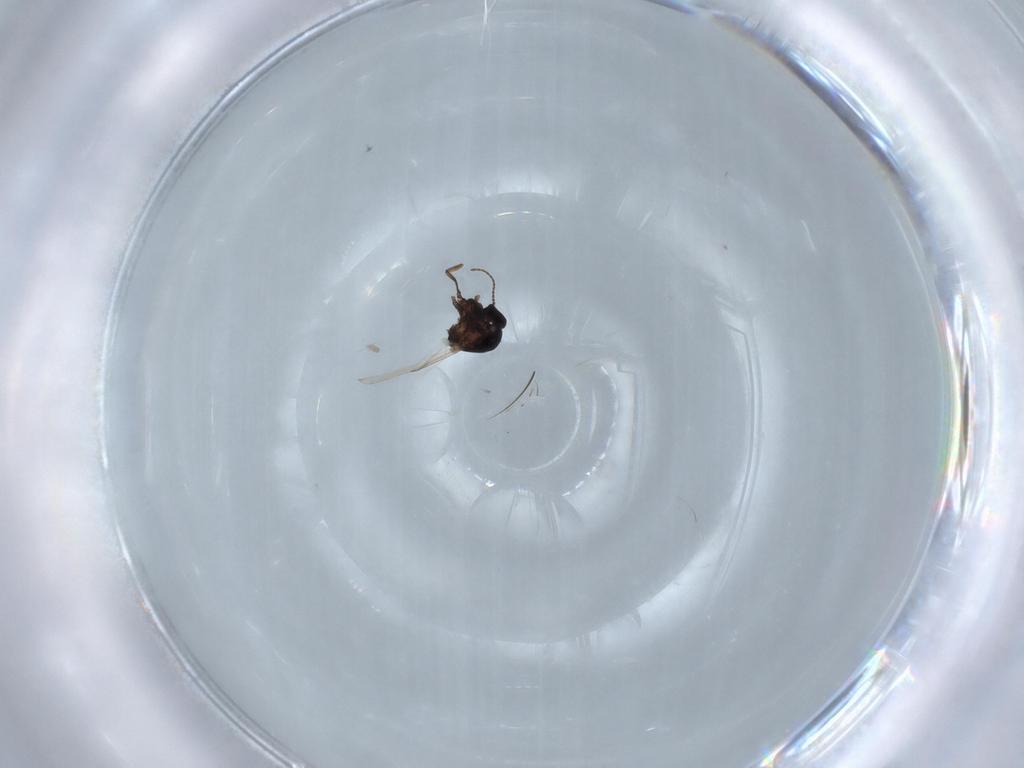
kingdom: Animalia
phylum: Arthropoda
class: Insecta
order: Diptera
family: Ceratopogonidae
